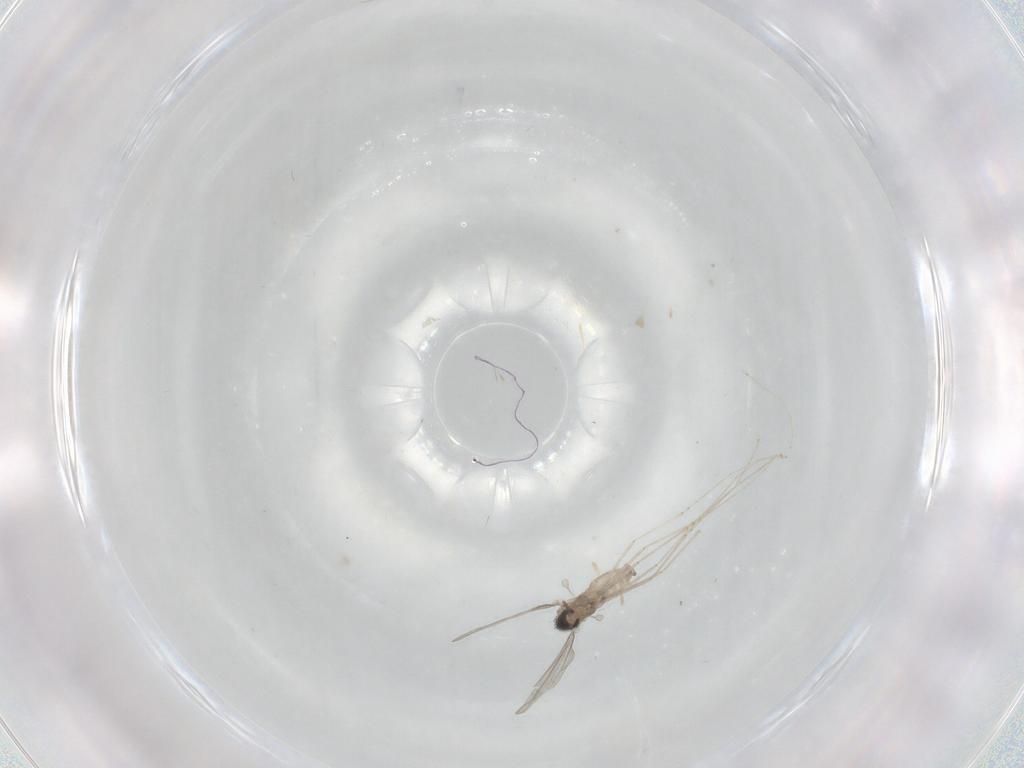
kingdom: Animalia
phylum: Arthropoda
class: Insecta
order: Diptera
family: Cecidomyiidae
